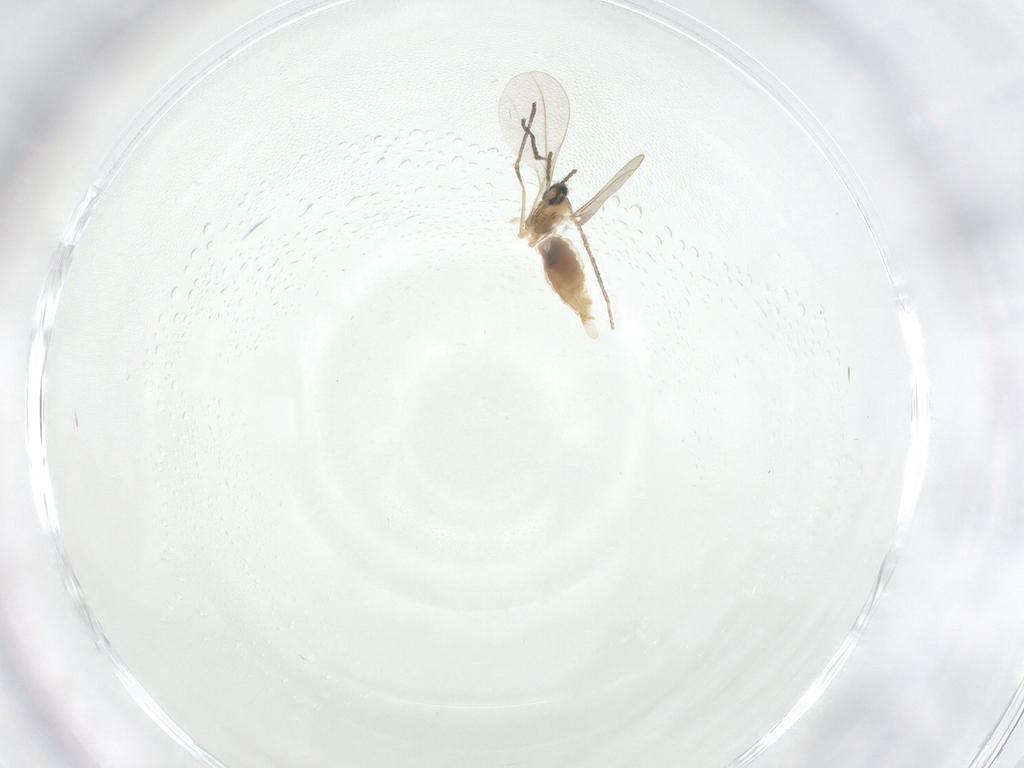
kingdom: Animalia
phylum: Arthropoda
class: Insecta
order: Diptera
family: Cecidomyiidae
